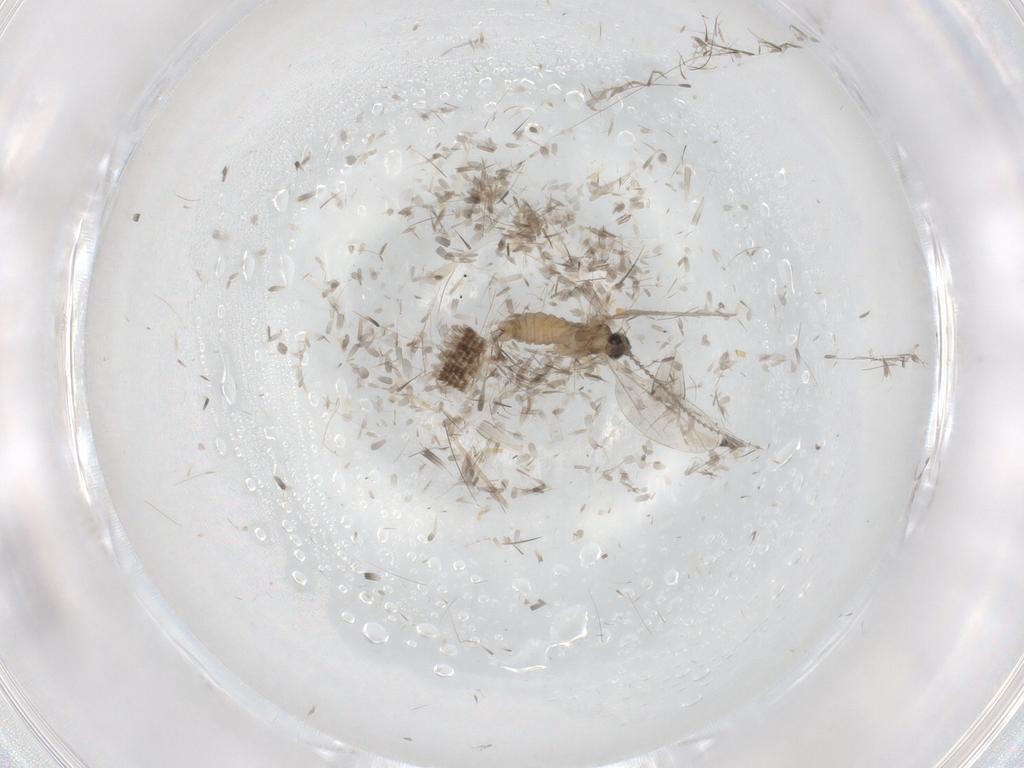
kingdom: Animalia
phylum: Arthropoda
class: Insecta
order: Diptera
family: Cecidomyiidae
